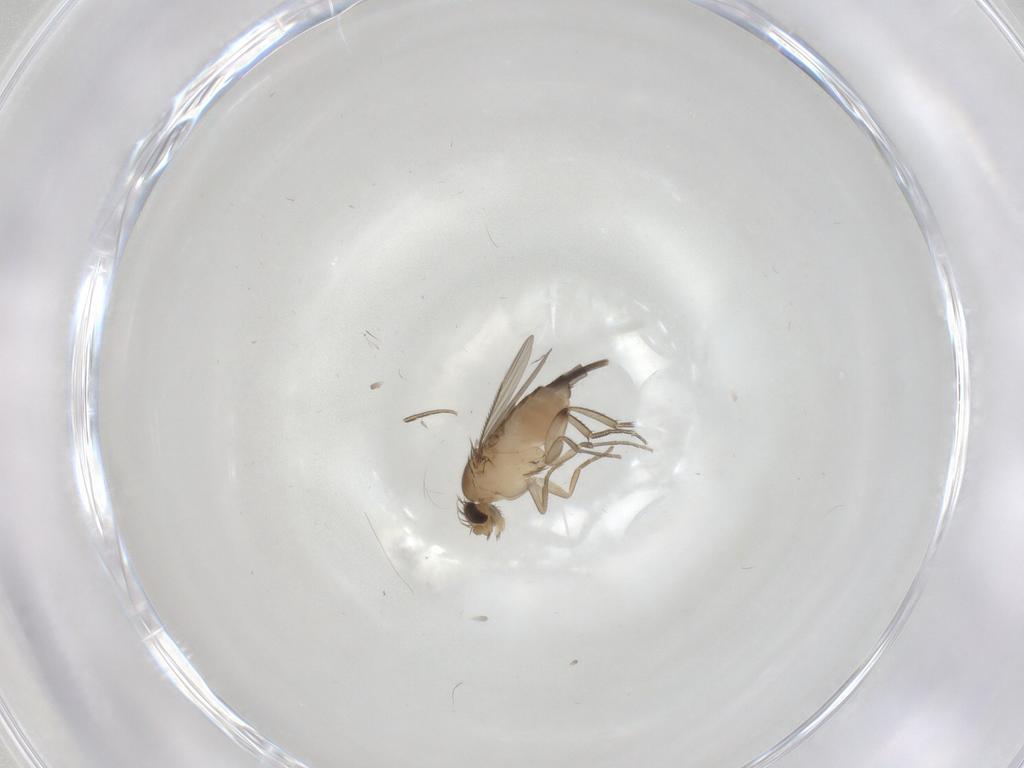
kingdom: Animalia
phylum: Arthropoda
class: Insecta
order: Diptera
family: Phoridae
